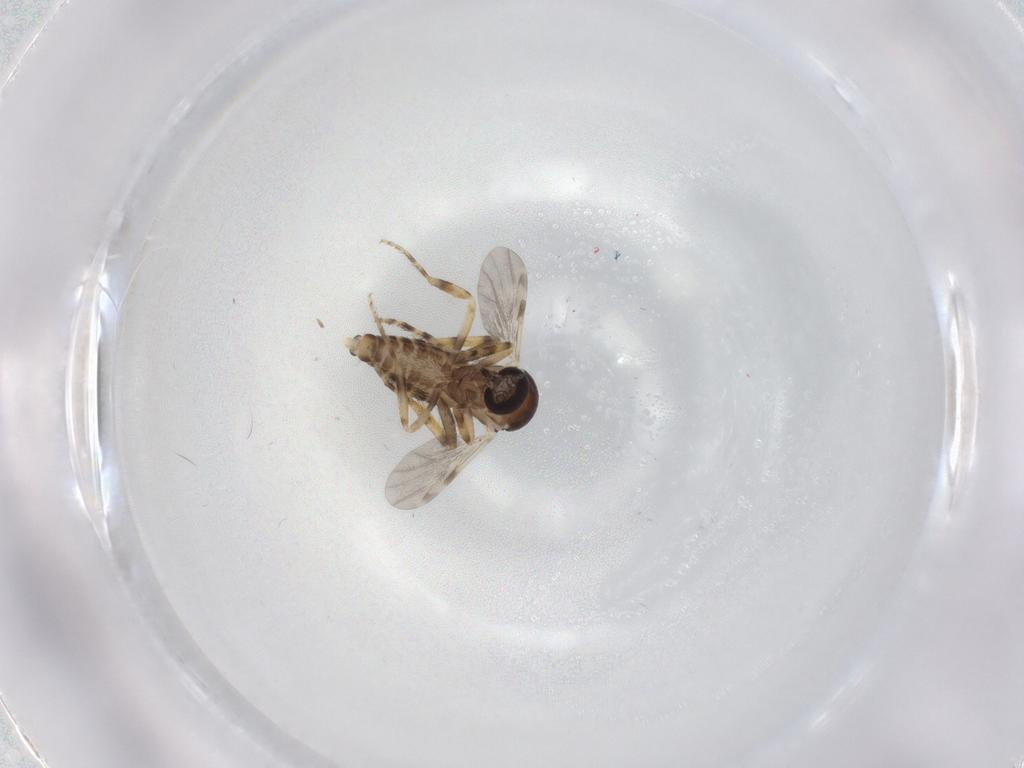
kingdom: Animalia
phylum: Arthropoda
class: Insecta
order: Diptera
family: Ceratopogonidae
